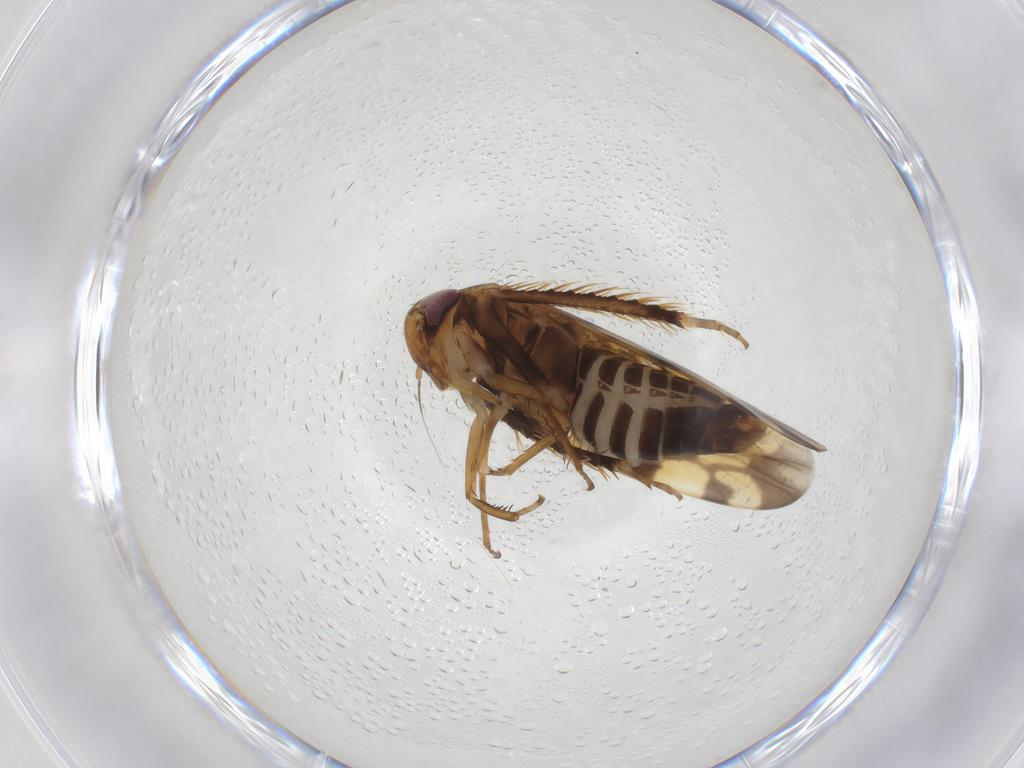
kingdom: Animalia
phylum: Arthropoda
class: Insecta
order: Hemiptera
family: Cicadellidae
